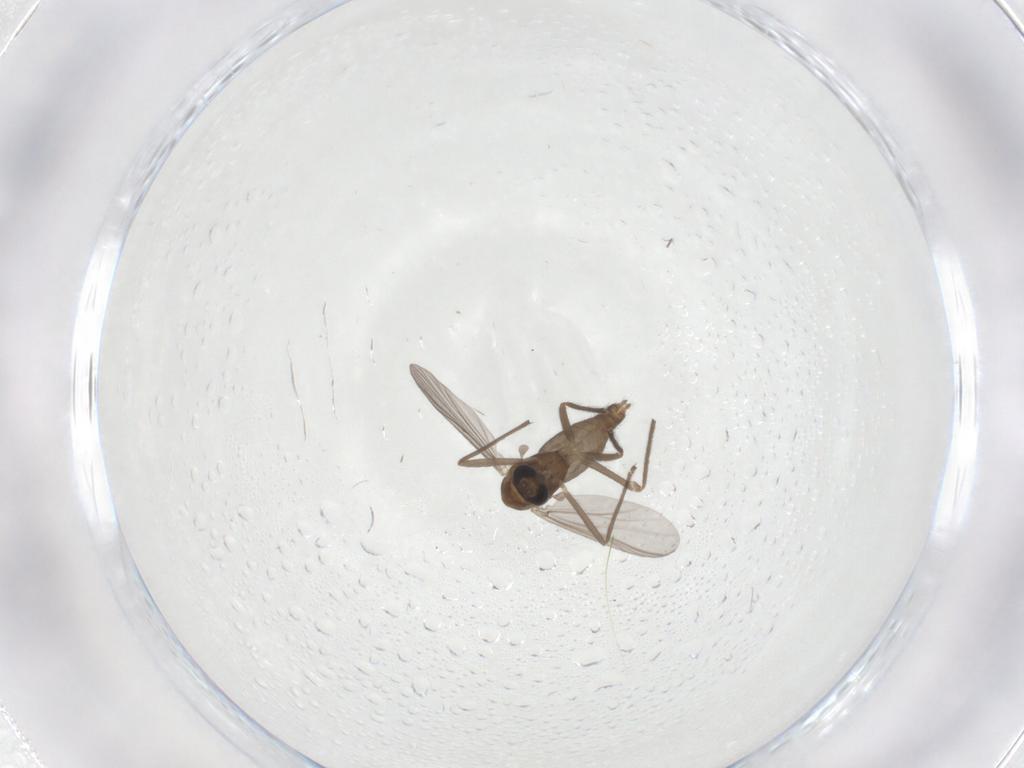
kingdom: Animalia
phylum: Arthropoda
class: Insecta
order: Diptera
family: Chironomidae
